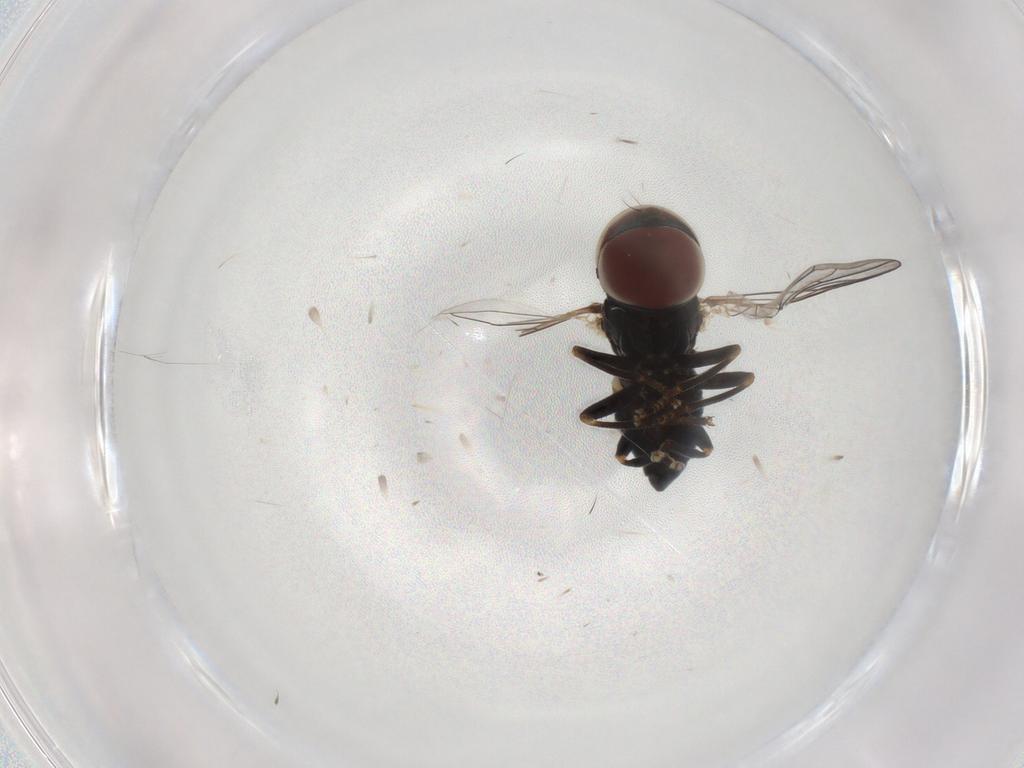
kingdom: Animalia
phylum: Arthropoda
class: Insecta
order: Diptera
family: Pipunculidae
